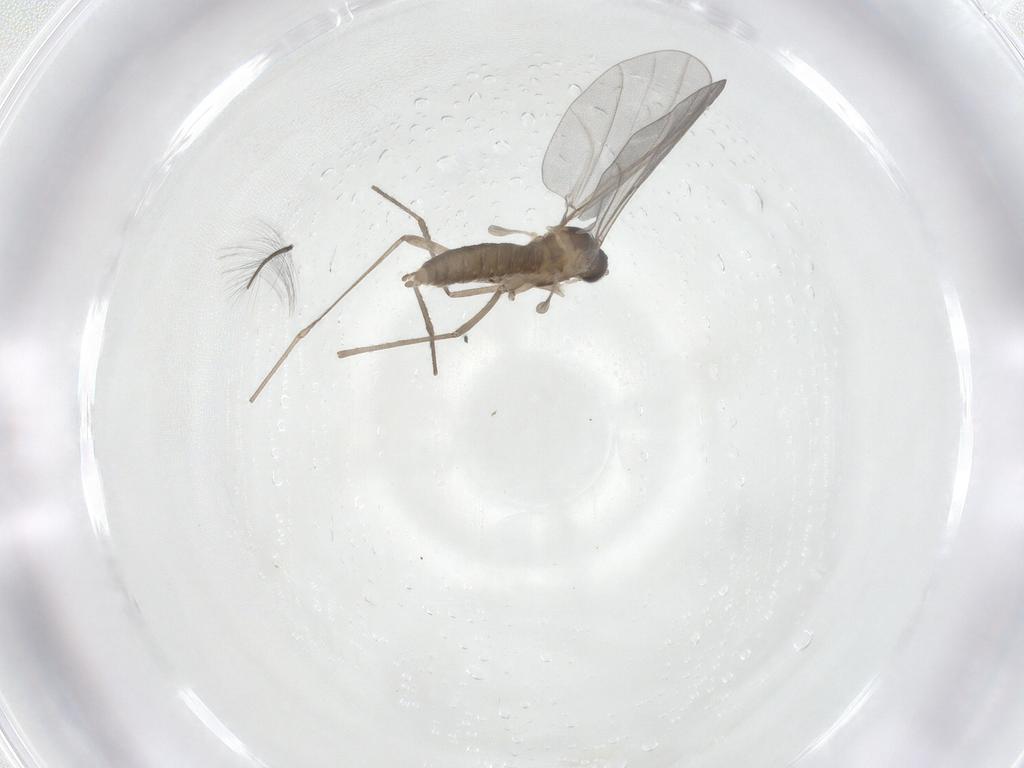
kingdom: Animalia
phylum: Arthropoda
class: Insecta
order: Diptera
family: Cecidomyiidae
